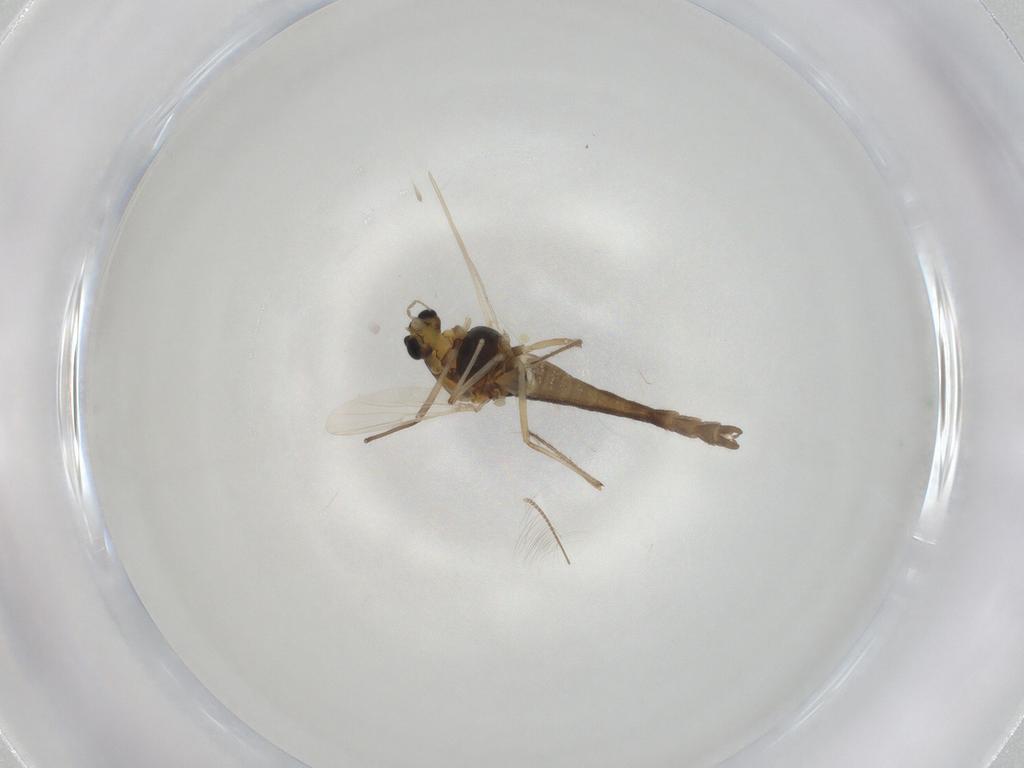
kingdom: Animalia
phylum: Arthropoda
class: Insecta
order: Diptera
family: Chironomidae
